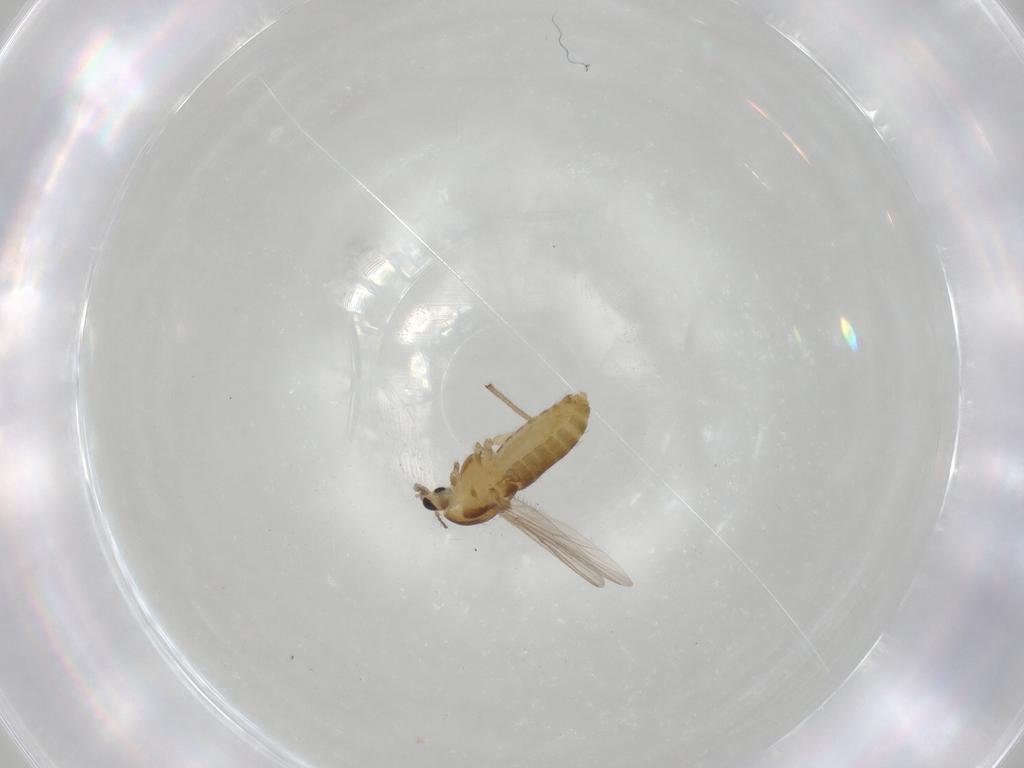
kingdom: Animalia
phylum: Arthropoda
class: Insecta
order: Diptera
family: Chironomidae
